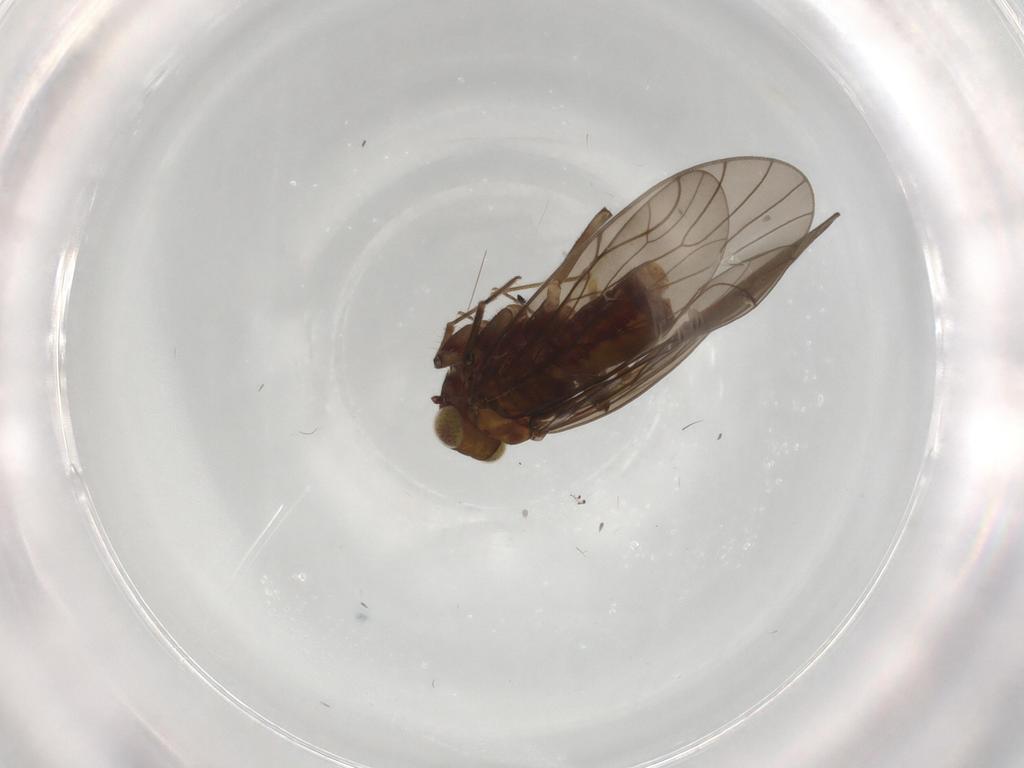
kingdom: Animalia
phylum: Arthropoda
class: Insecta
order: Psocodea
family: Philotarsidae
